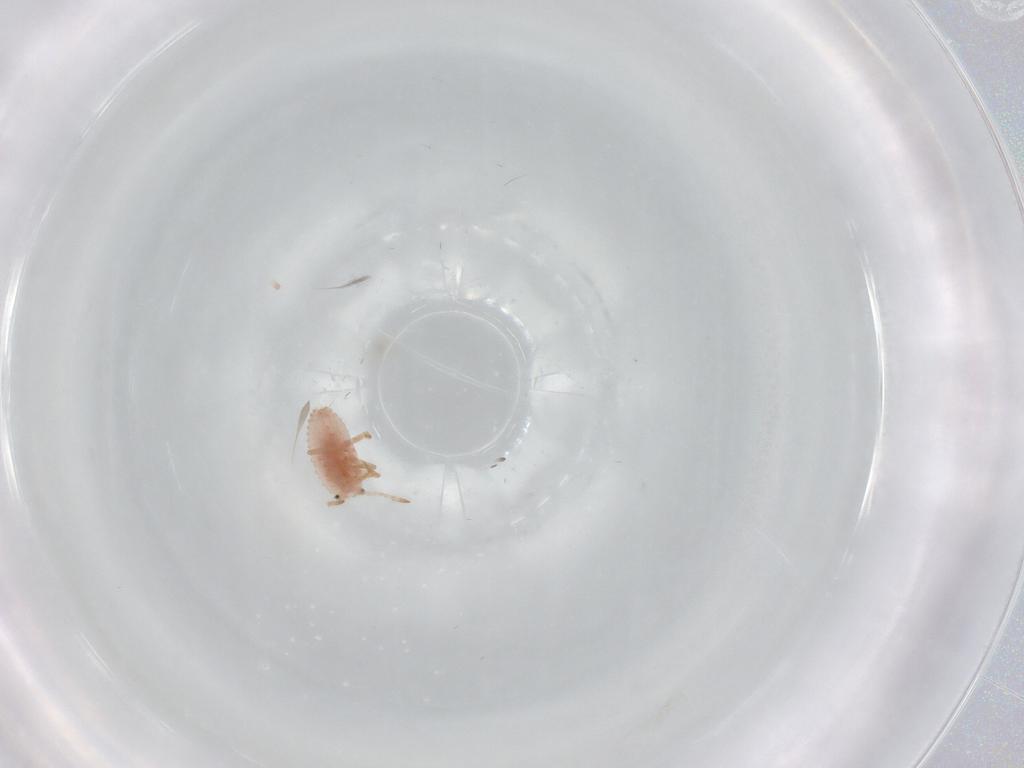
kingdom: Animalia
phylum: Arthropoda
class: Insecta
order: Hemiptera
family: Coccoidea_incertae_sedis
